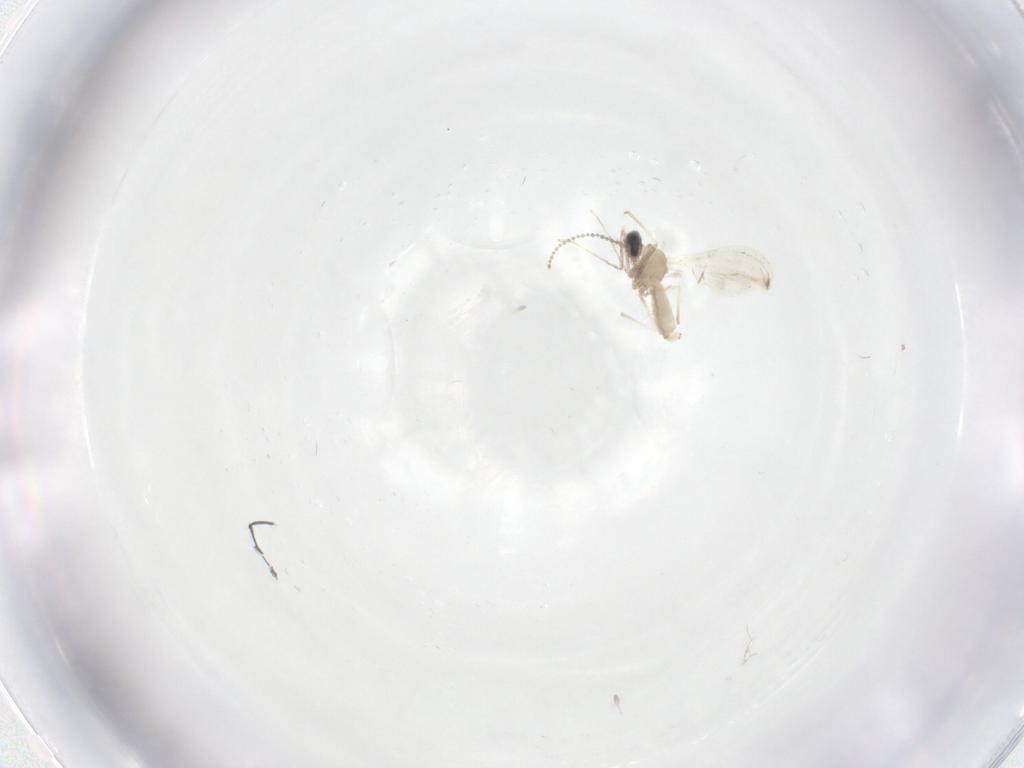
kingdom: Animalia
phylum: Arthropoda
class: Insecta
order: Diptera
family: Cecidomyiidae
